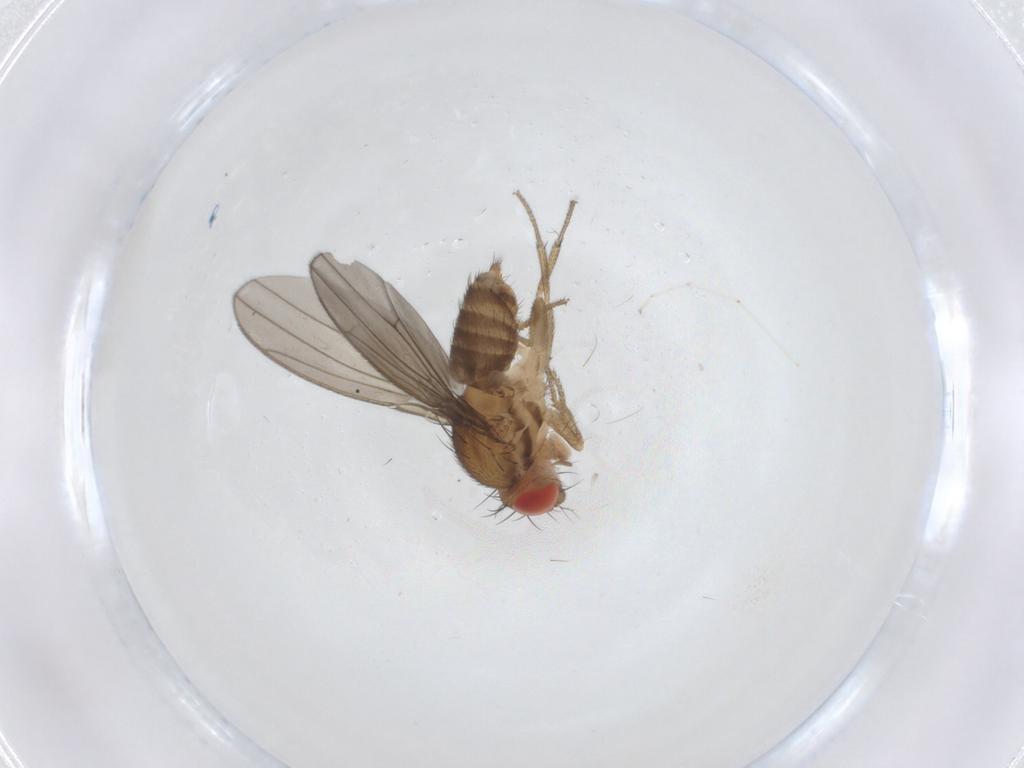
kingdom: Animalia
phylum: Arthropoda
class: Insecta
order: Diptera
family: Drosophilidae
